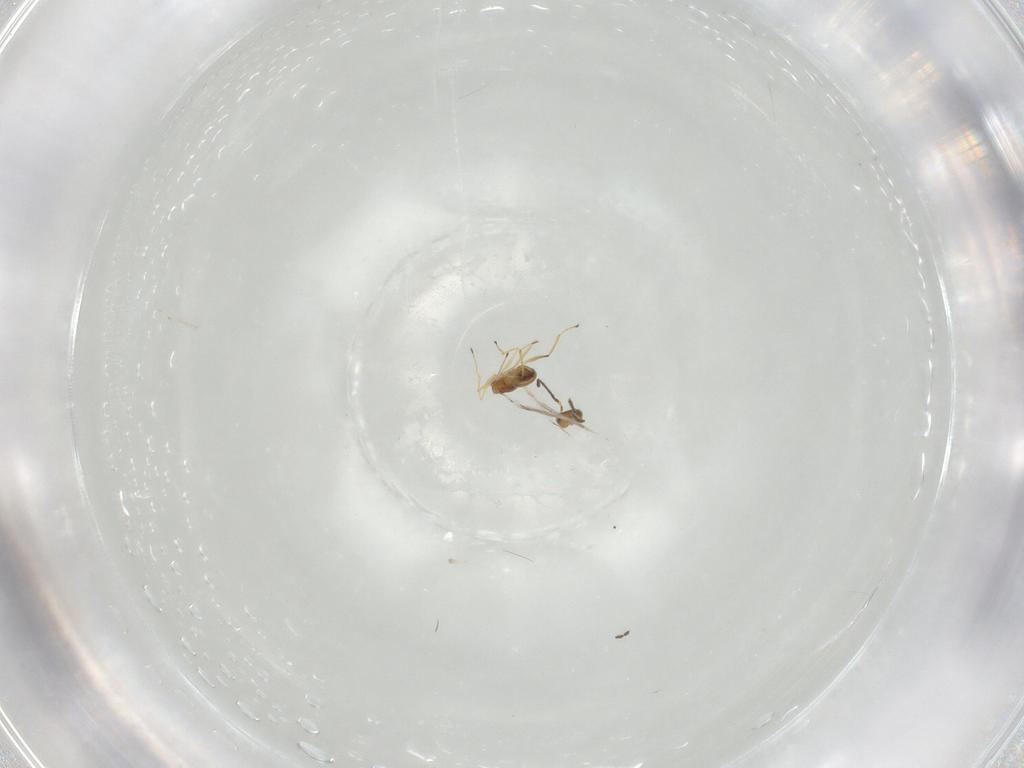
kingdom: Animalia
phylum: Arthropoda
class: Insecta
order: Hymenoptera
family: Mymaridae
